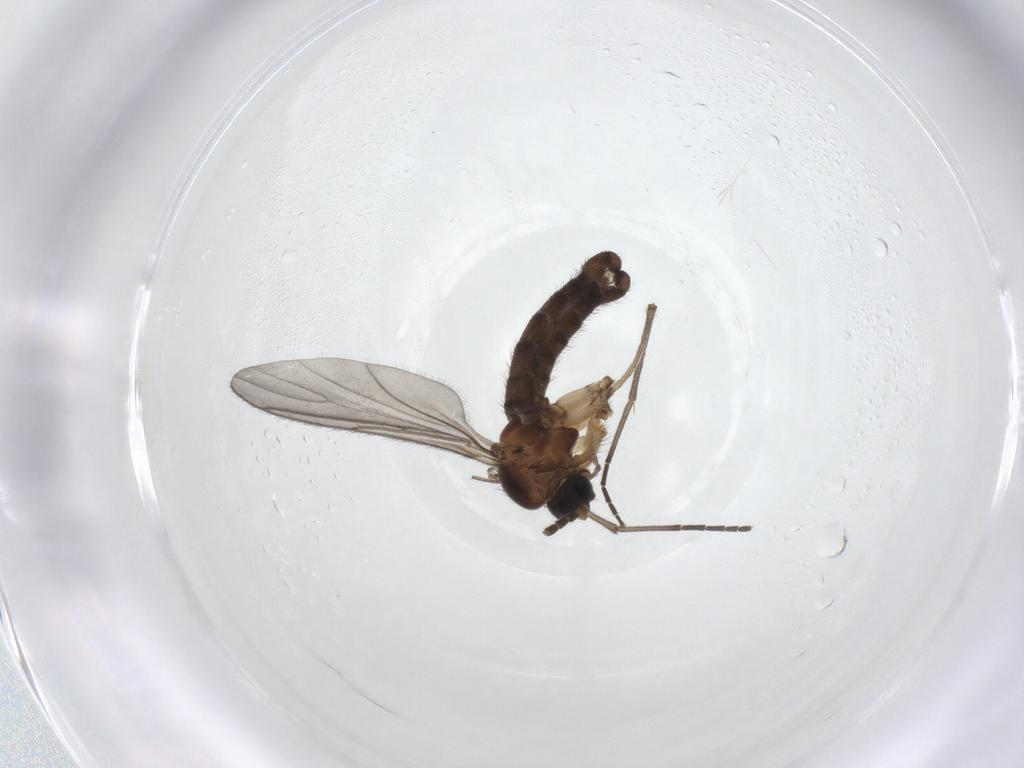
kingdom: Animalia
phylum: Arthropoda
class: Insecta
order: Diptera
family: Sciaridae
